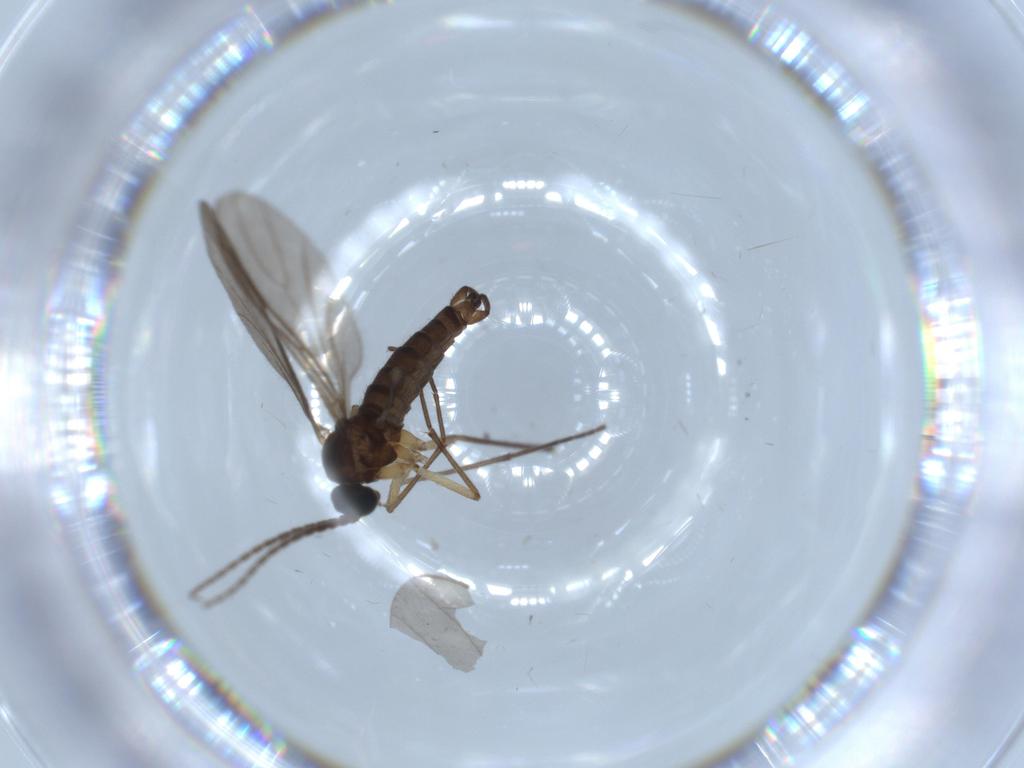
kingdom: Animalia
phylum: Arthropoda
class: Insecta
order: Diptera
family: Sciaridae
